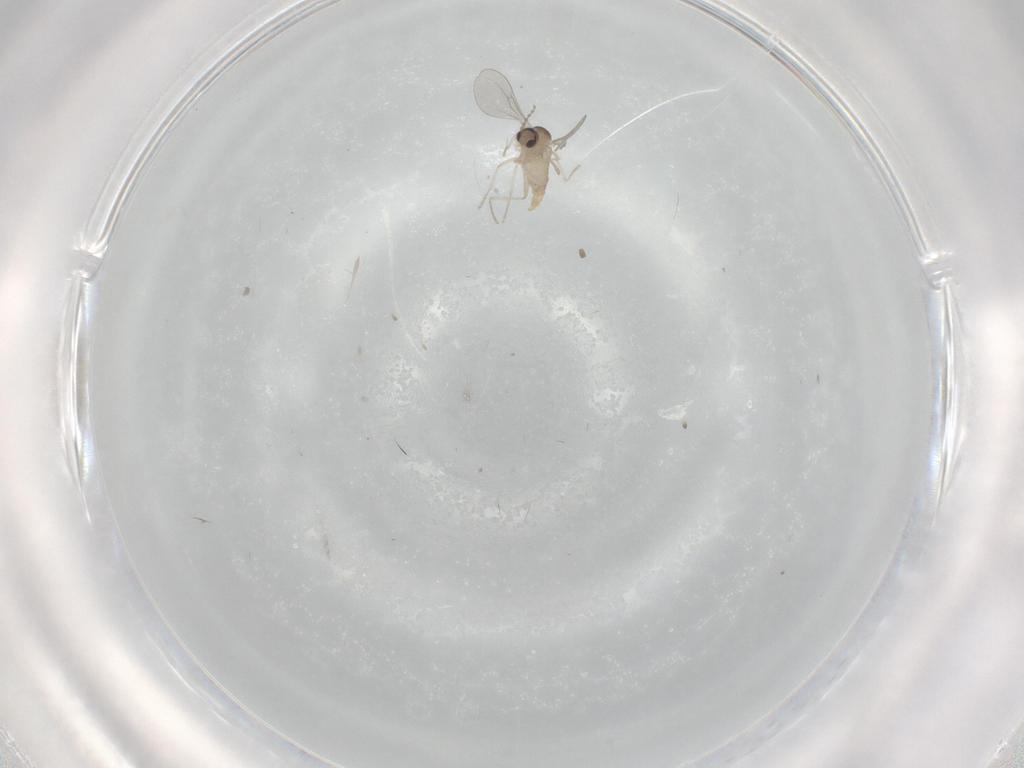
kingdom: Animalia
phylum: Arthropoda
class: Insecta
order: Diptera
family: Cecidomyiidae
